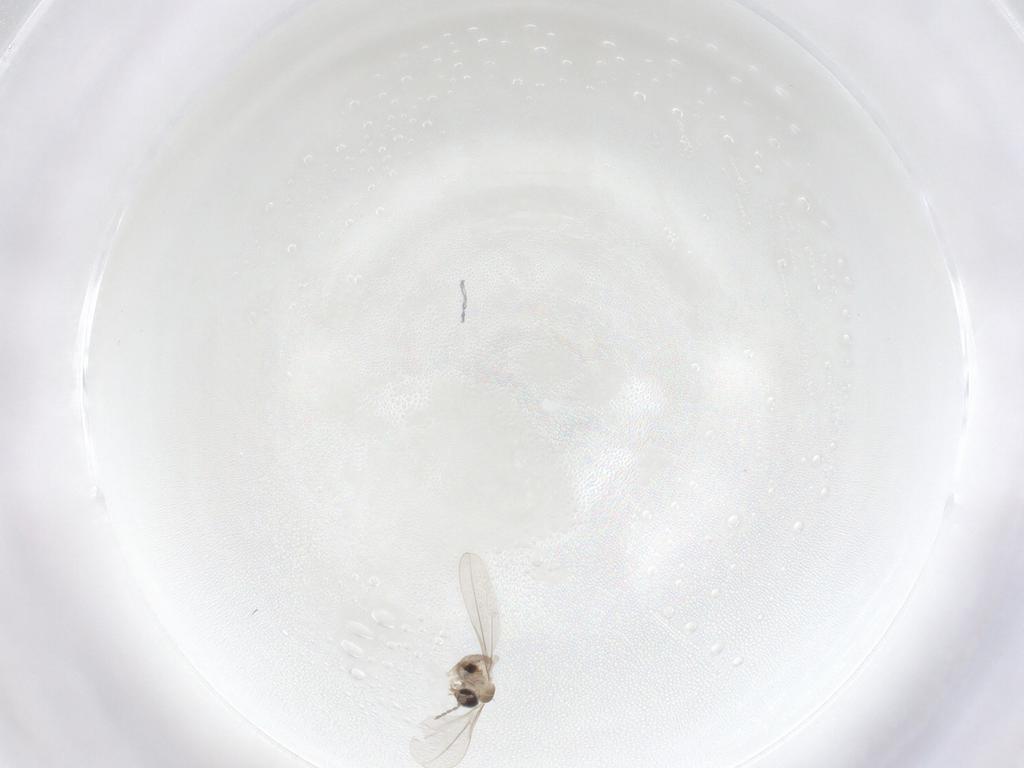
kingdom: Animalia
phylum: Arthropoda
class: Insecta
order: Diptera
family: Cecidomyiidae
